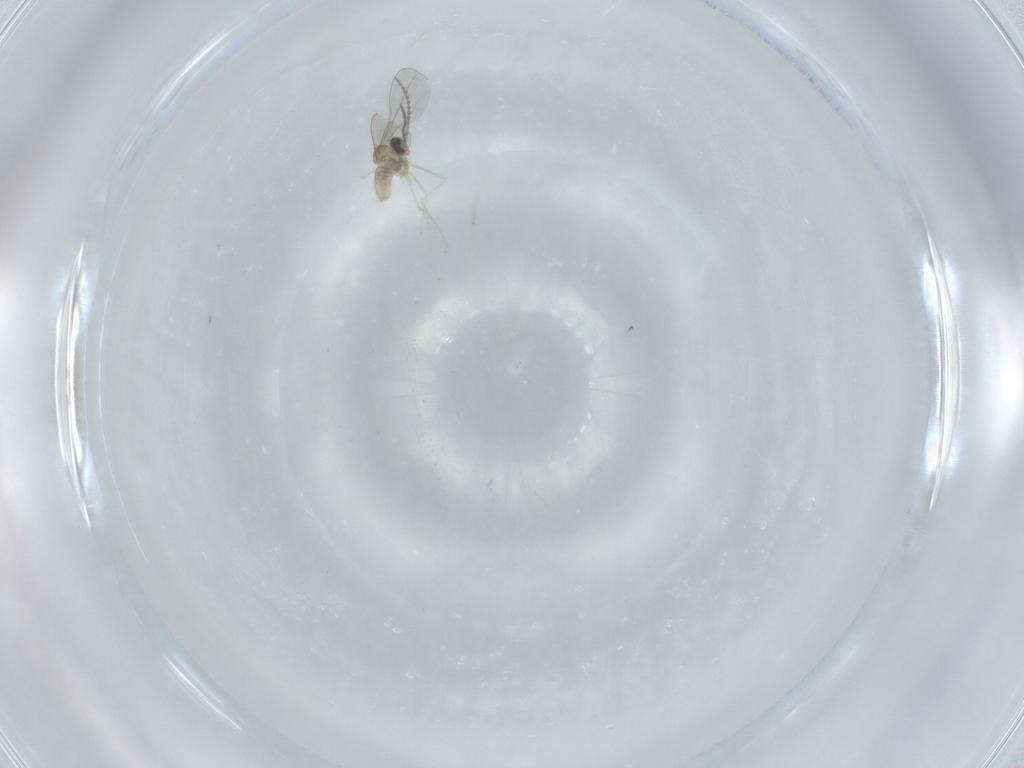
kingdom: Animalia
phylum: Arthropoda
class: Insecta
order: Diptera
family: Cecidomyiidae
